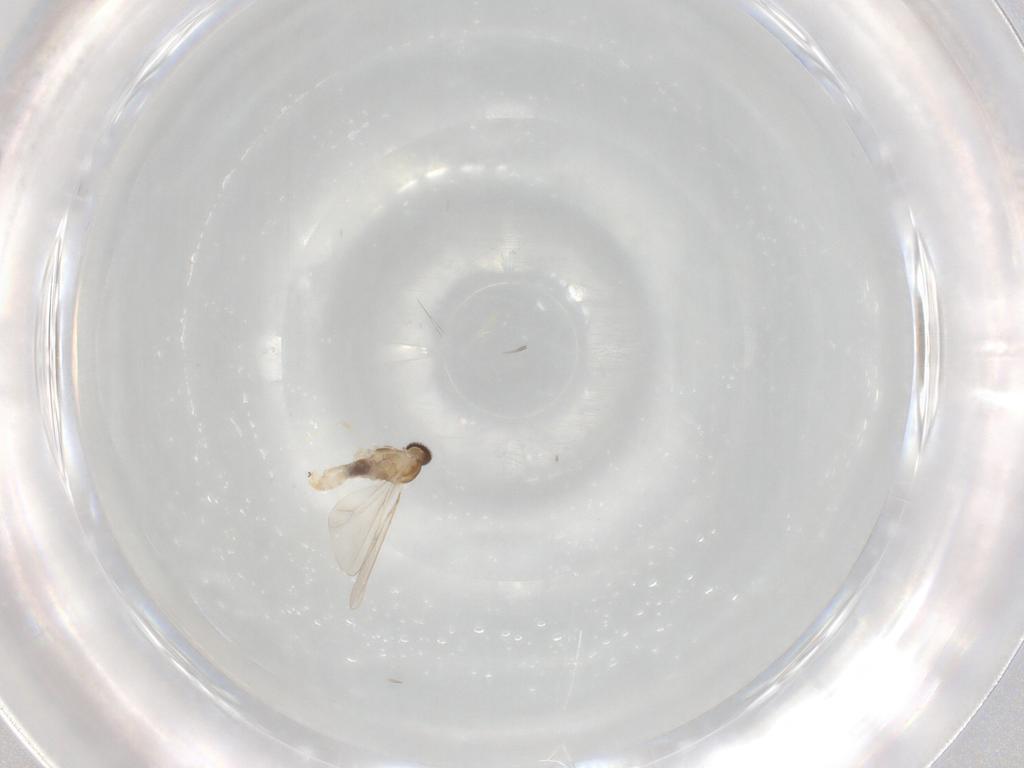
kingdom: Animalia
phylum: Arthropoda
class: Insecta
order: Diptera
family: Cecidomyiidae
